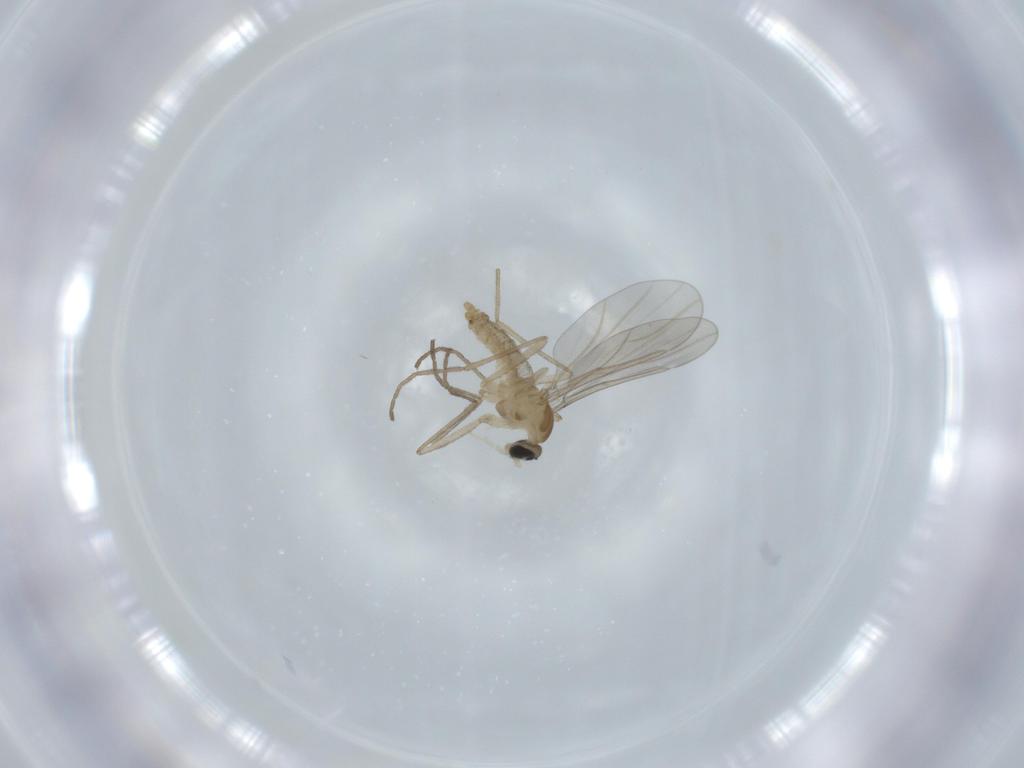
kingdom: Animalia
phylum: Arthropoda
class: Insecta
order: Diptera
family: Cecidomyiidae
